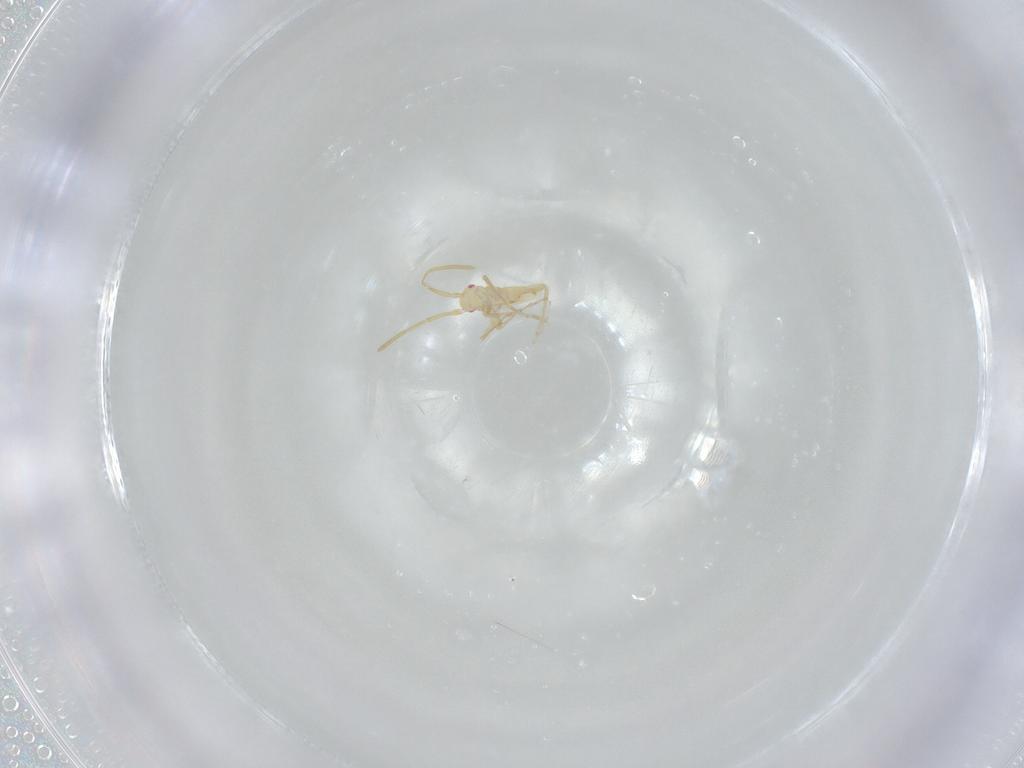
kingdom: Animalia
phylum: Arthropoda
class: Insecta
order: Hemiptera
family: Miridae
